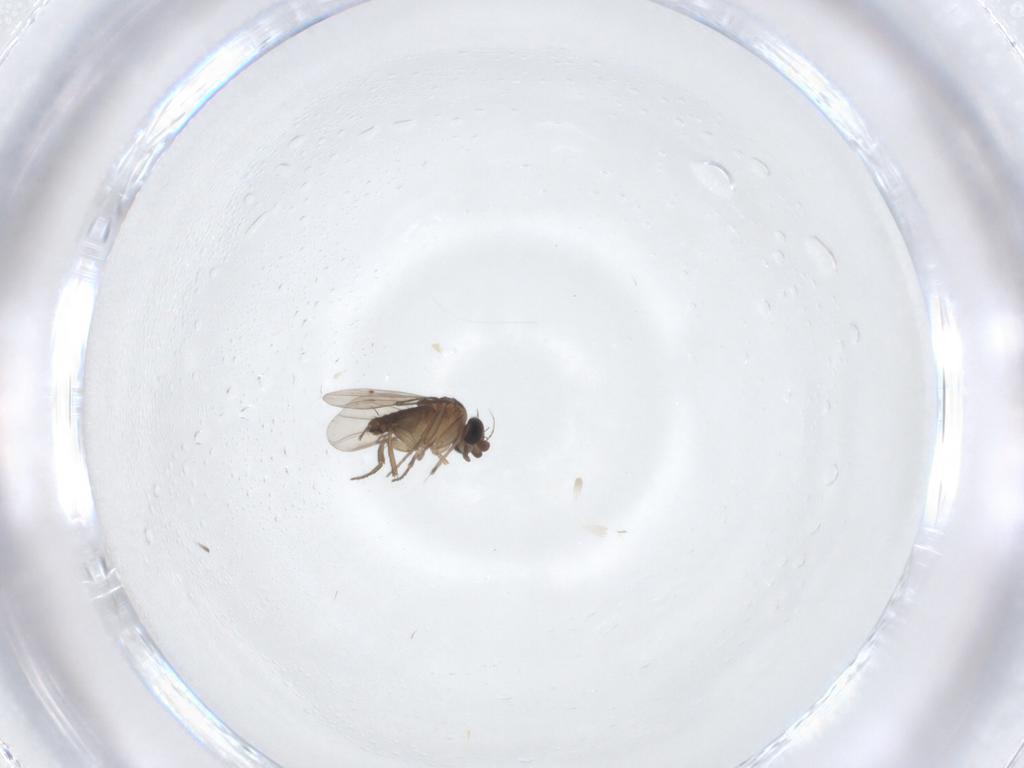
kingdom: Animalia
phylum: Arthropoda
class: Insecta
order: Diptera
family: Phoridae
